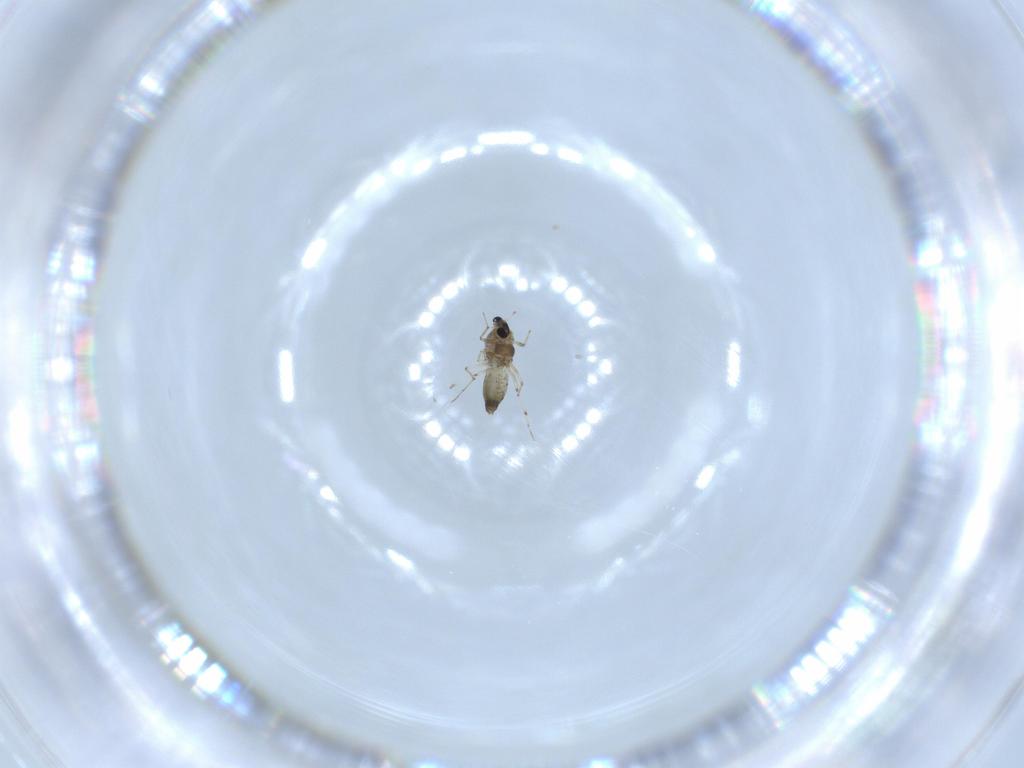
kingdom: Animalia
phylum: Arthropoda
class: Insecta
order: Diptera
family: Chironomidae
